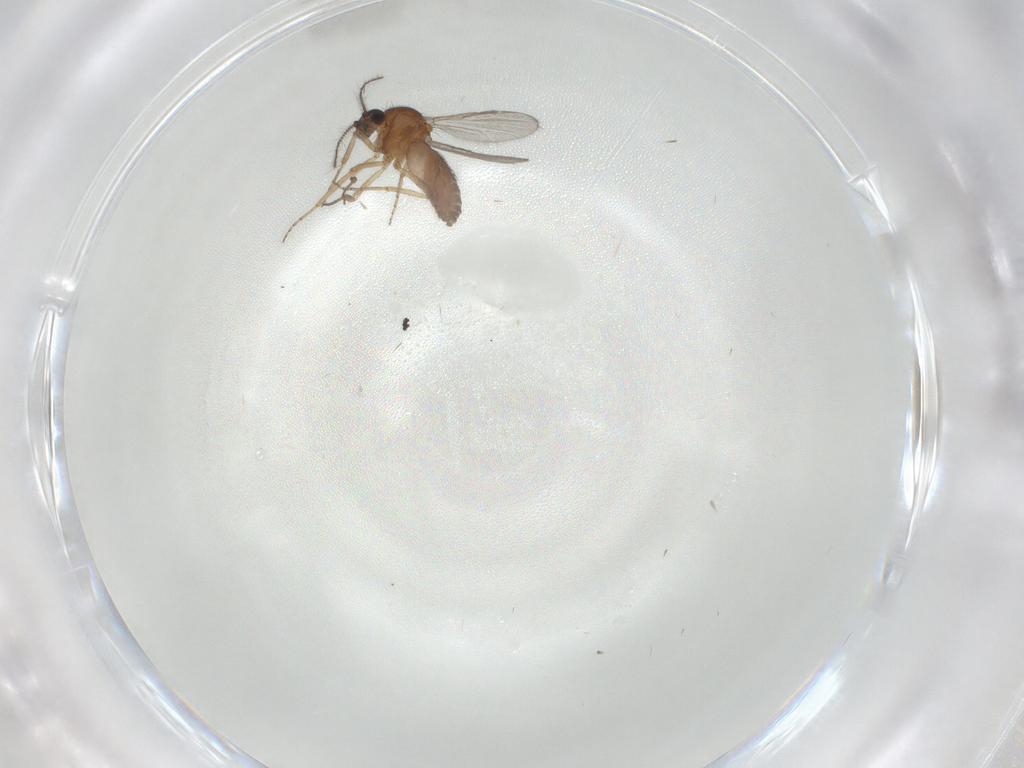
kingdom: Animalia
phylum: Arthropoda
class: Insecta
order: Diptera
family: Ceratopogonidae
